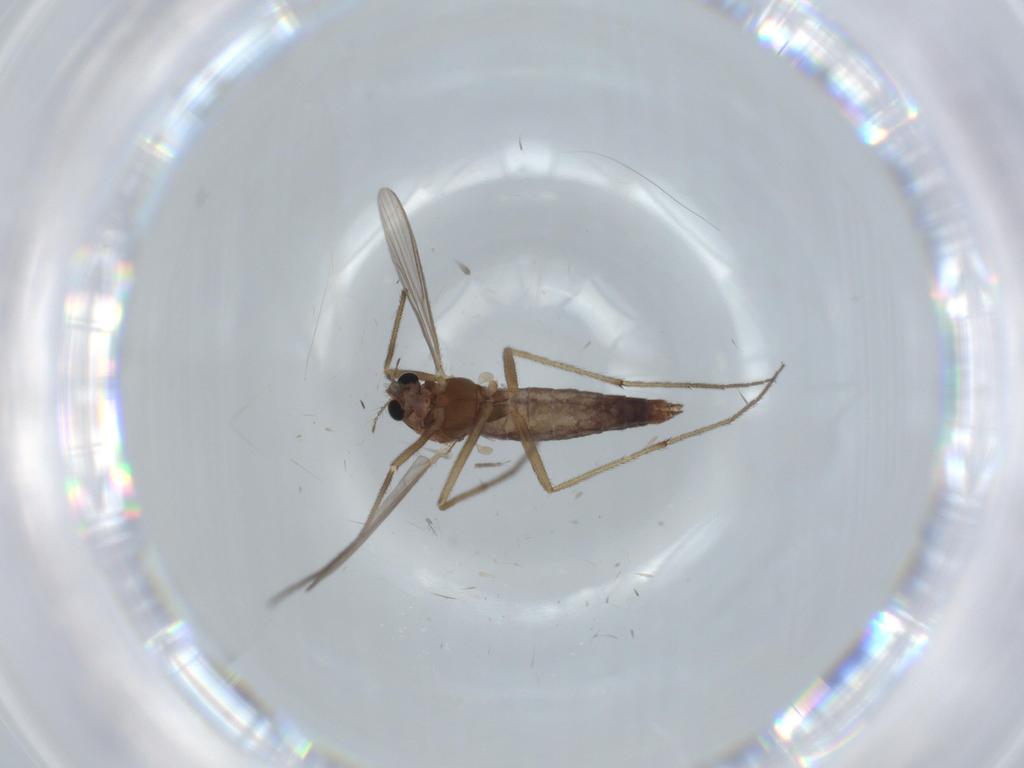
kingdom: Animalia
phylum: Arthropoda
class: Insecta
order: Diptera
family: Chironomidae
